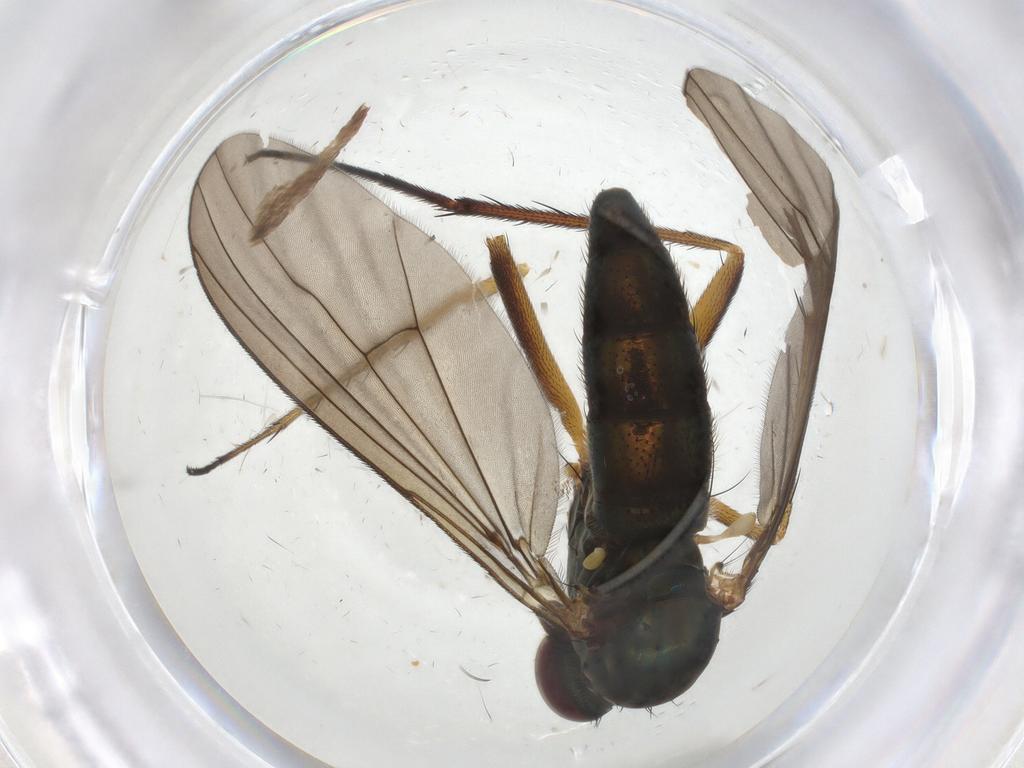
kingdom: Animalia
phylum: Arthropoda
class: Insecta
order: Diptera
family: Dolichopodidae
